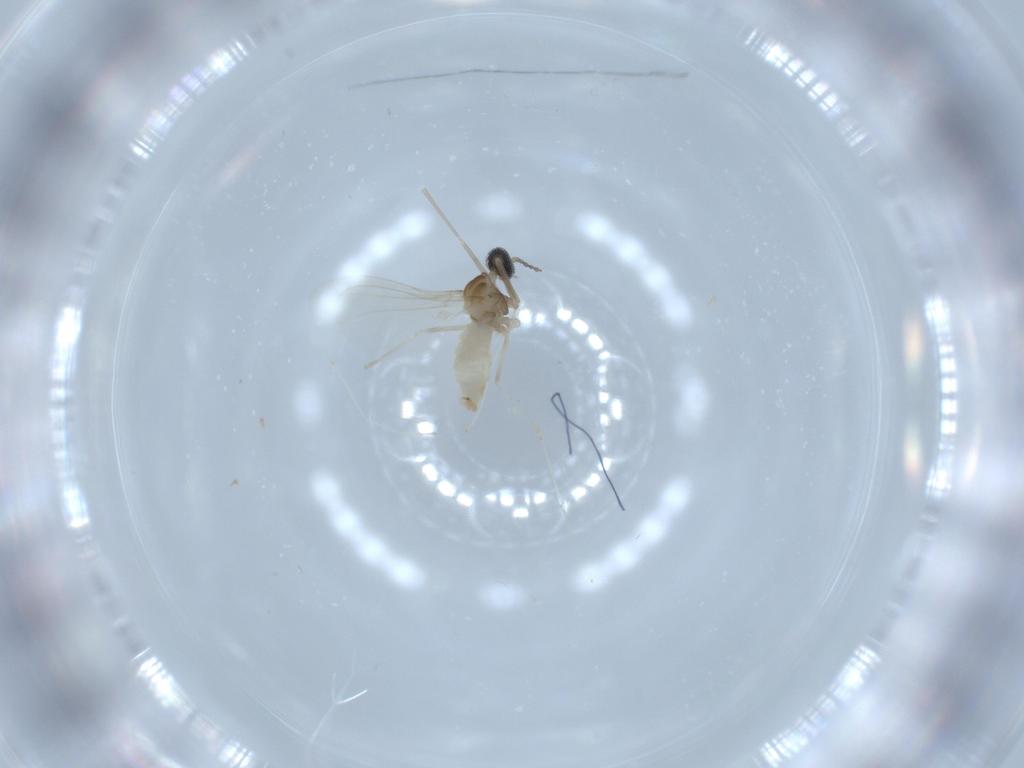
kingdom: Animalia
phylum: Arthropoda
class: Insecta
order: Diptera
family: Cecidomyiidae
